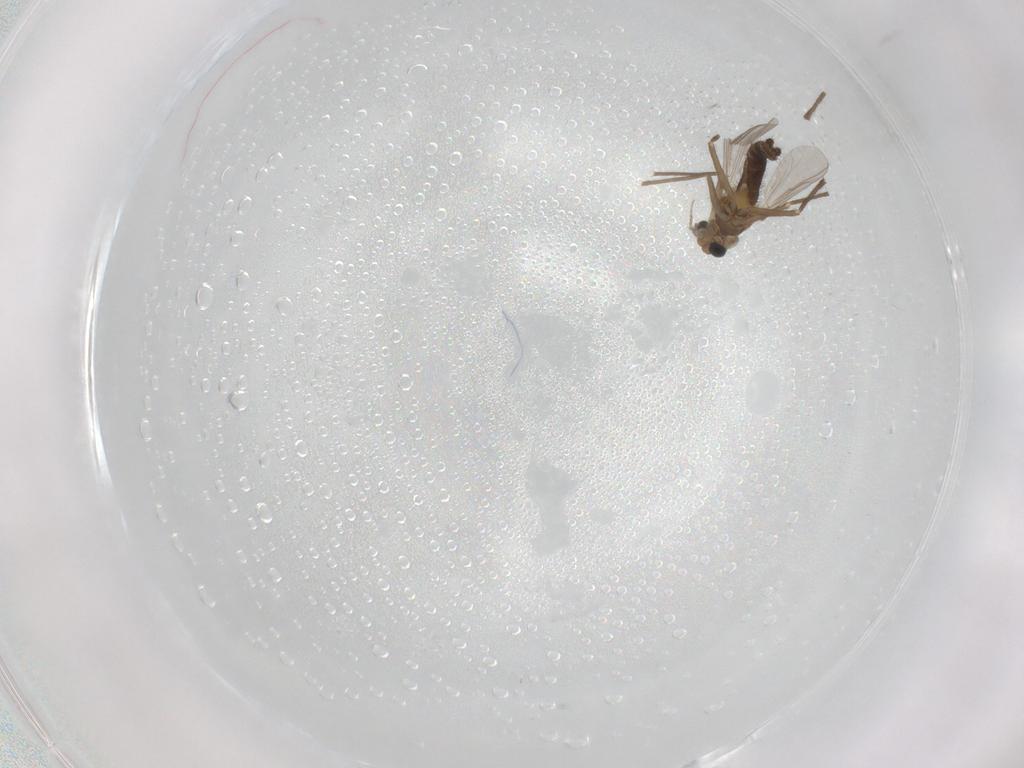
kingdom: Animalia
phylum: Arthropoda
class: Insecta
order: Diptera
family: Chironomidae
